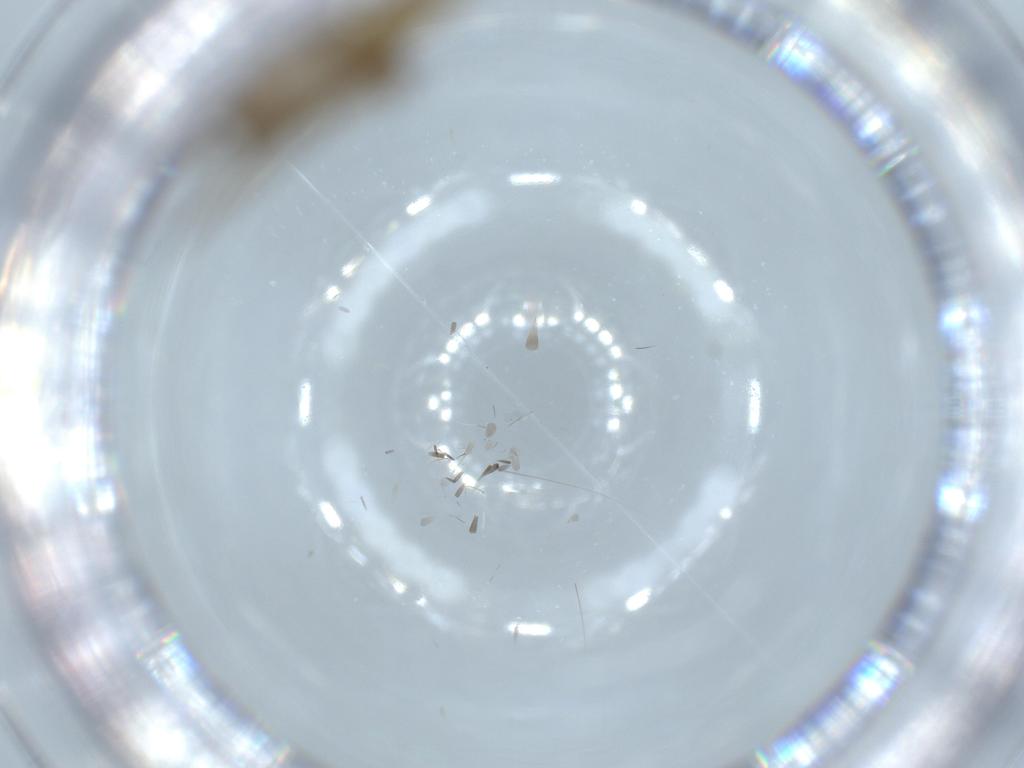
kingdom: Animalia
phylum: Arthropoda
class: Insecta
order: Diptera
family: Mycetophilidae
